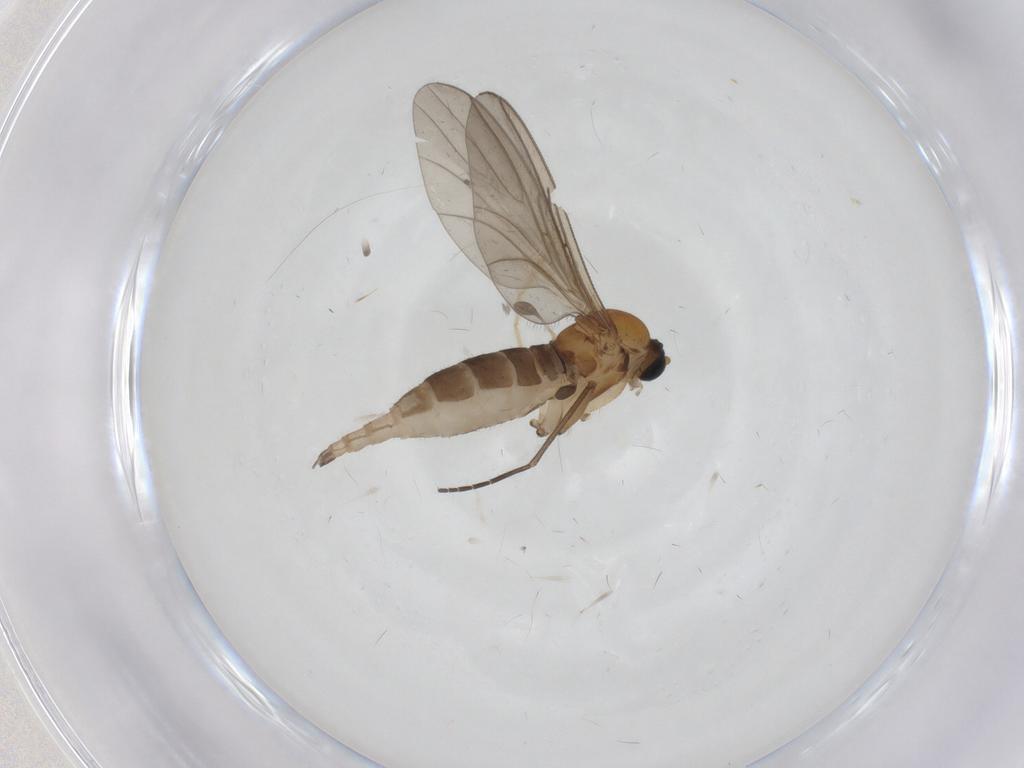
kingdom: Animalia
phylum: Arthropoda
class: Insecta
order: Diptera
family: Sciaridae
